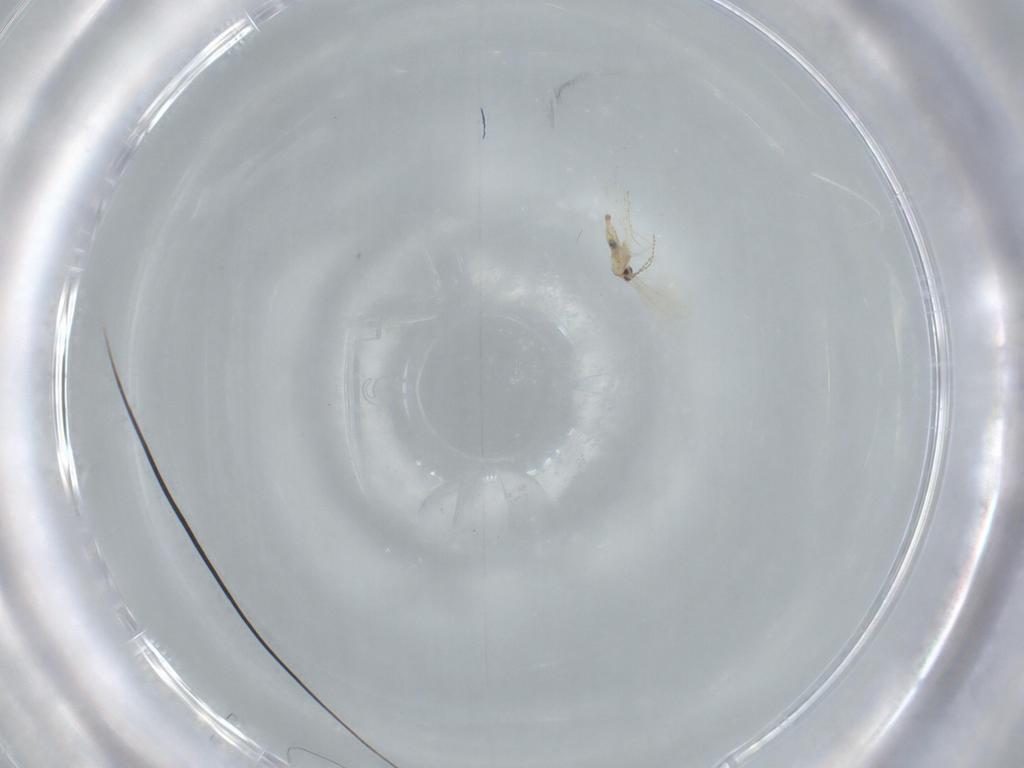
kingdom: Animalia
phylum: Arthropoda
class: Insecta
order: Diptera
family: Cecidomyiidae
